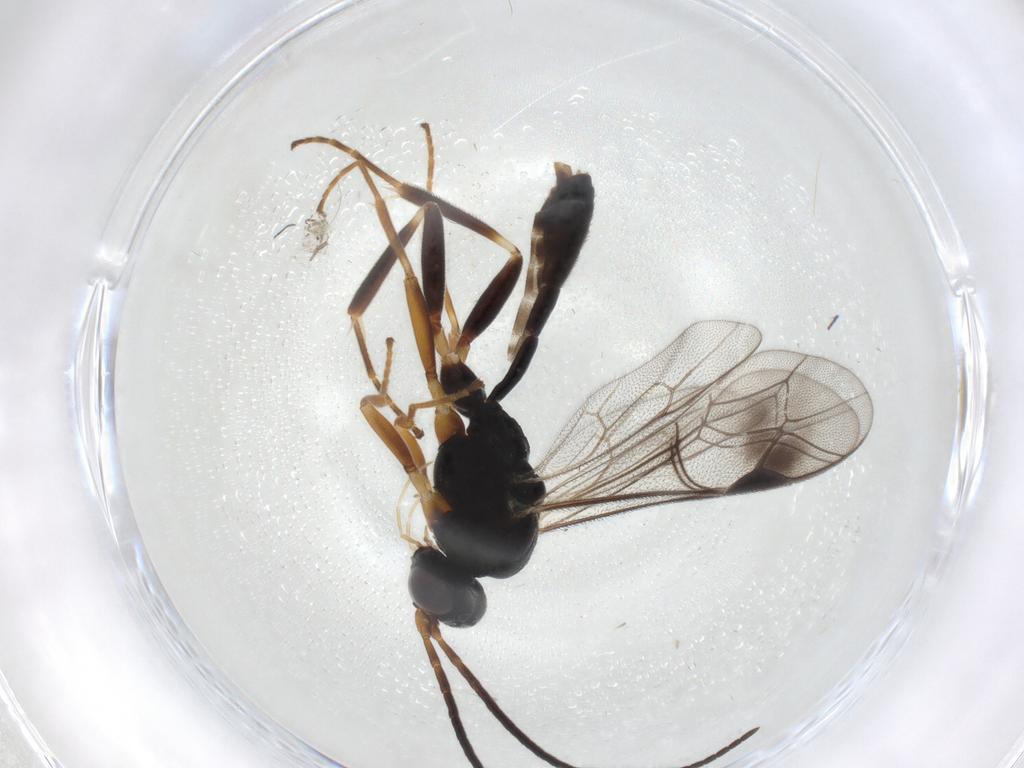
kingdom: Animalia
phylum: Arthropoda
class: Insecta
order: Hymenoptera
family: Ichneumonidae
